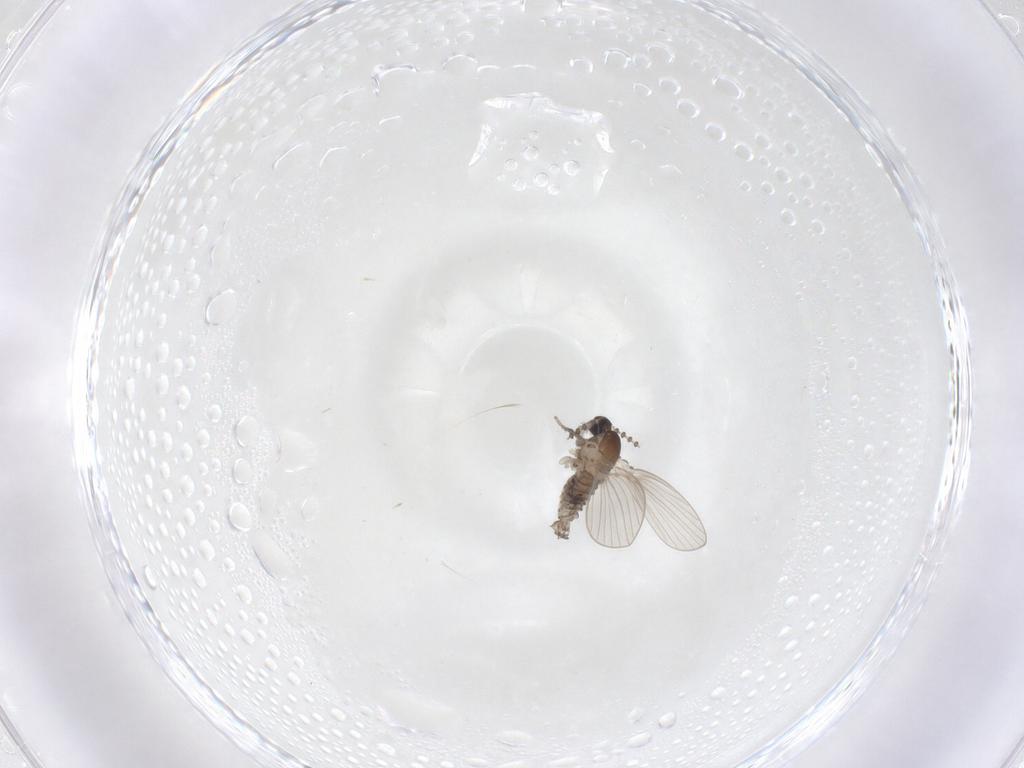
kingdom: Animalia
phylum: Arthropoda
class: Insecta
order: Diptera
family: Psychodidae
